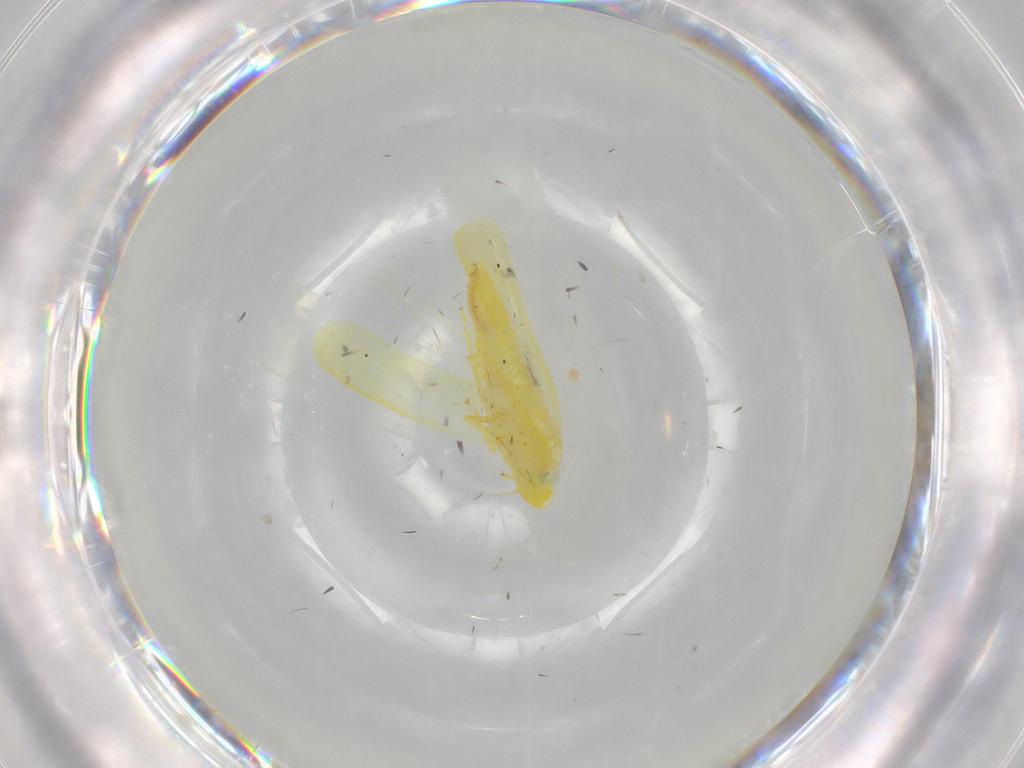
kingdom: Animalia
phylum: Arthropoda
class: Insecta
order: Hemiptera
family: Cicadellidae
